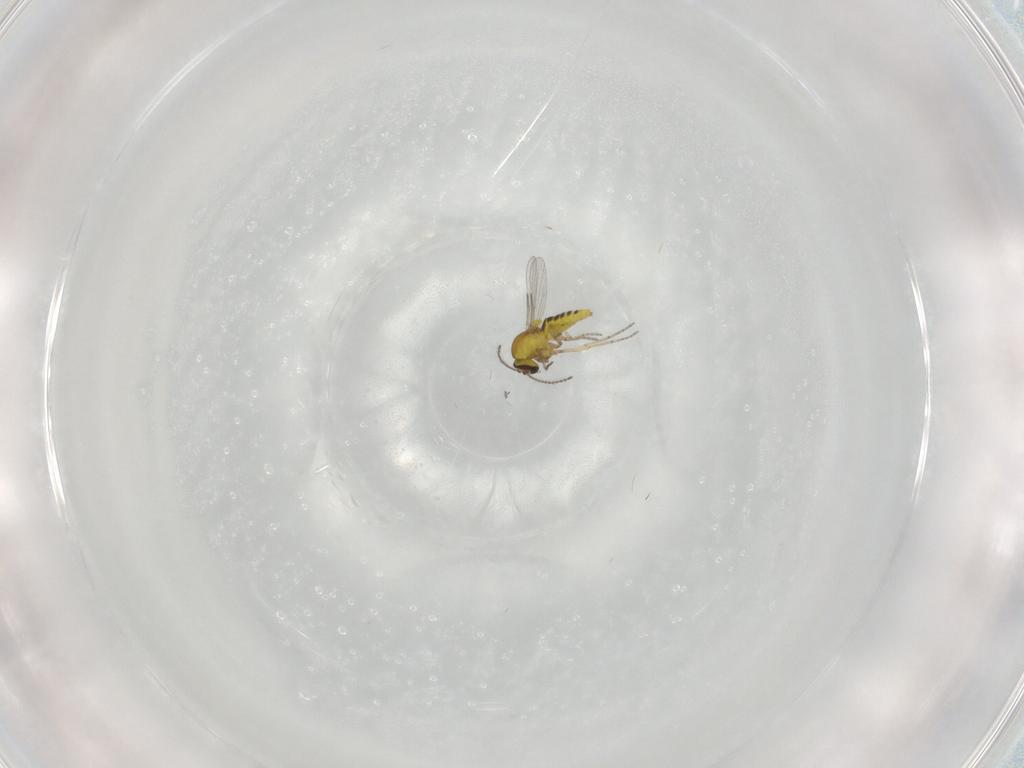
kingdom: Animalia
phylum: Arthropoda
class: Insecta
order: Diptera
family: Ceratopogonidae
